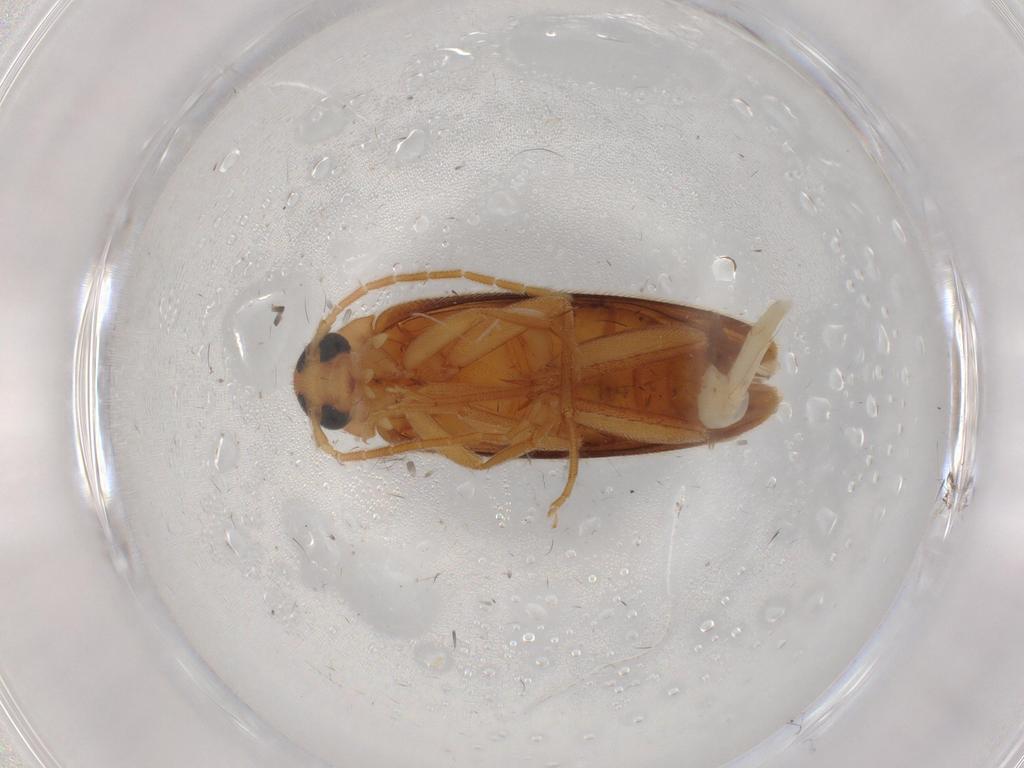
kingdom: Animalia
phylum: Arthropoda
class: Insecta
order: Coleoptera
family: Scraptiidae
